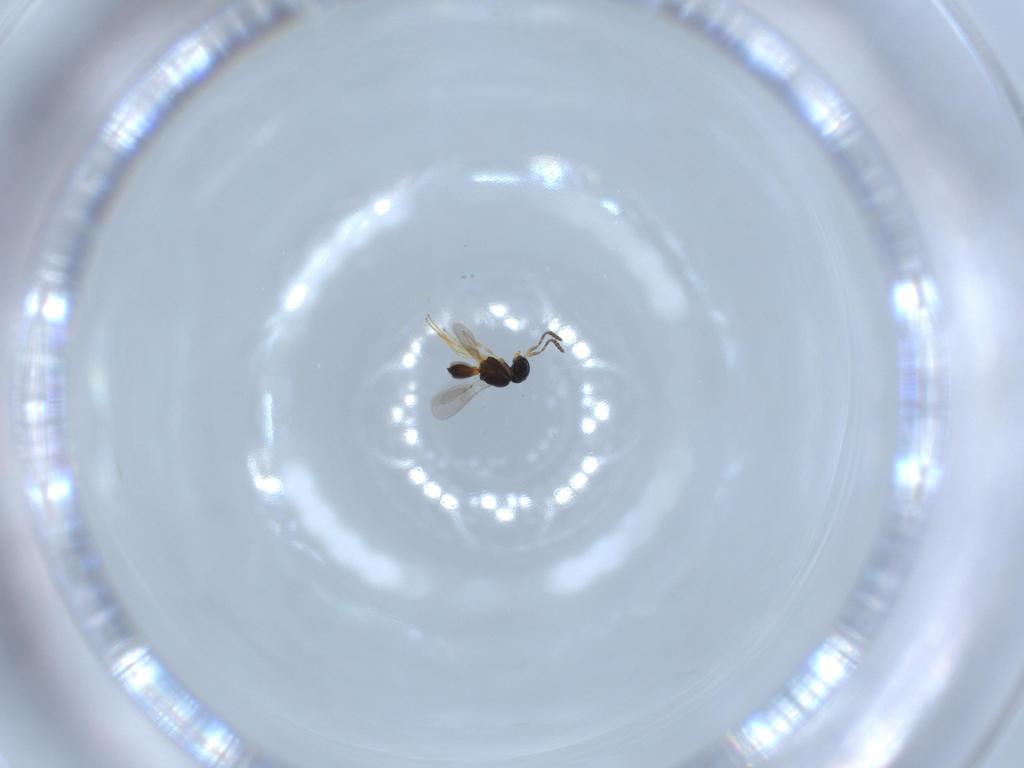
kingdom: Animalia
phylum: Arthropoda
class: Insecta
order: Hymenoptera
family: Scelionidae
